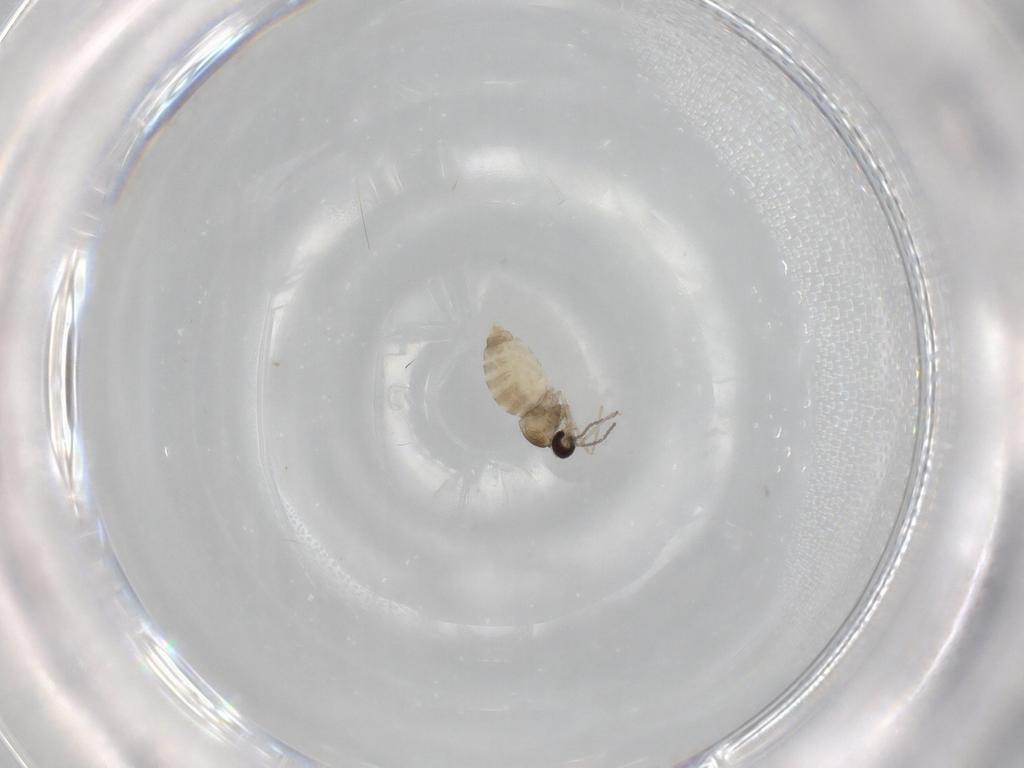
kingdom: Animalia
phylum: Arthropoda
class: Insecta
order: Diptera
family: Cecidomyiidae
